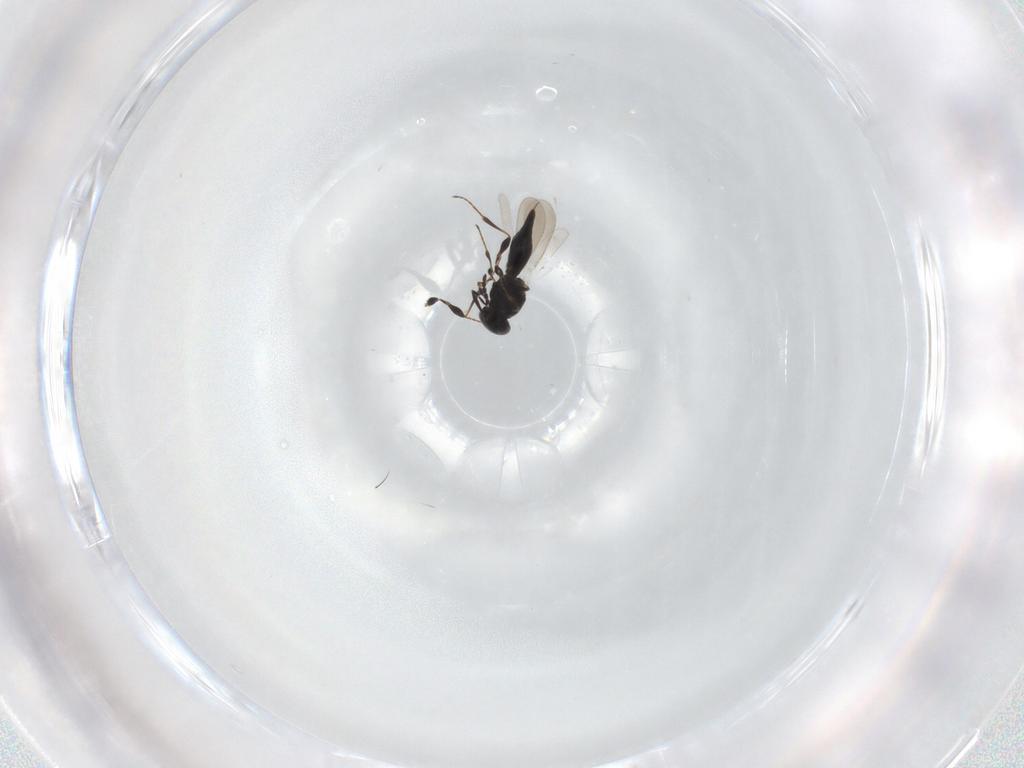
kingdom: Animalia
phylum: Arthropoda
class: Insecta
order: Hymenoptera
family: Platygastridae
